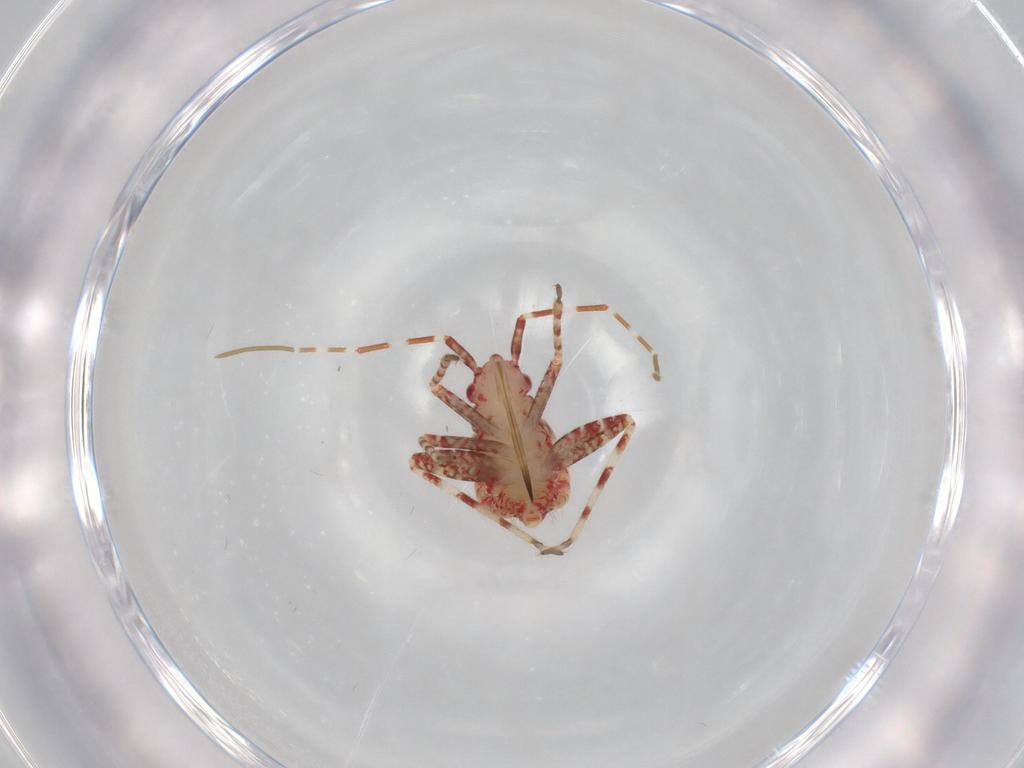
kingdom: Animalia
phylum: Arthropoda
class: Insecta
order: Hemiptera
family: Miridae
